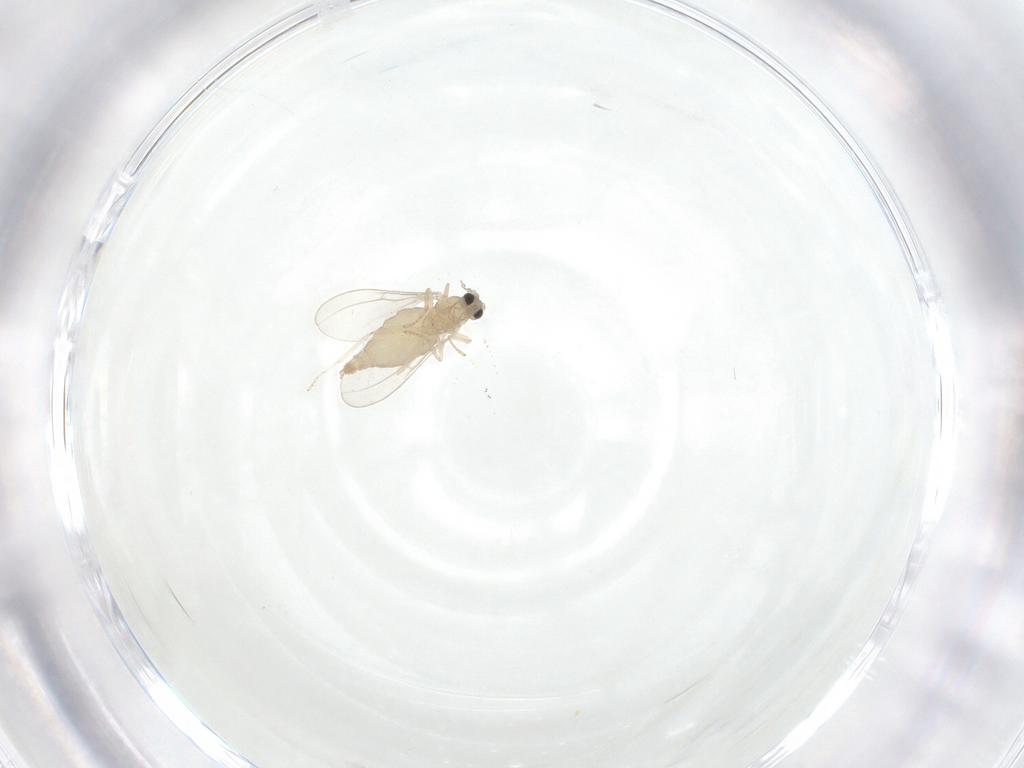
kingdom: Animalia
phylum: Arthropoda
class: Insecta
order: Diptera
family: Cecidomyiidae
